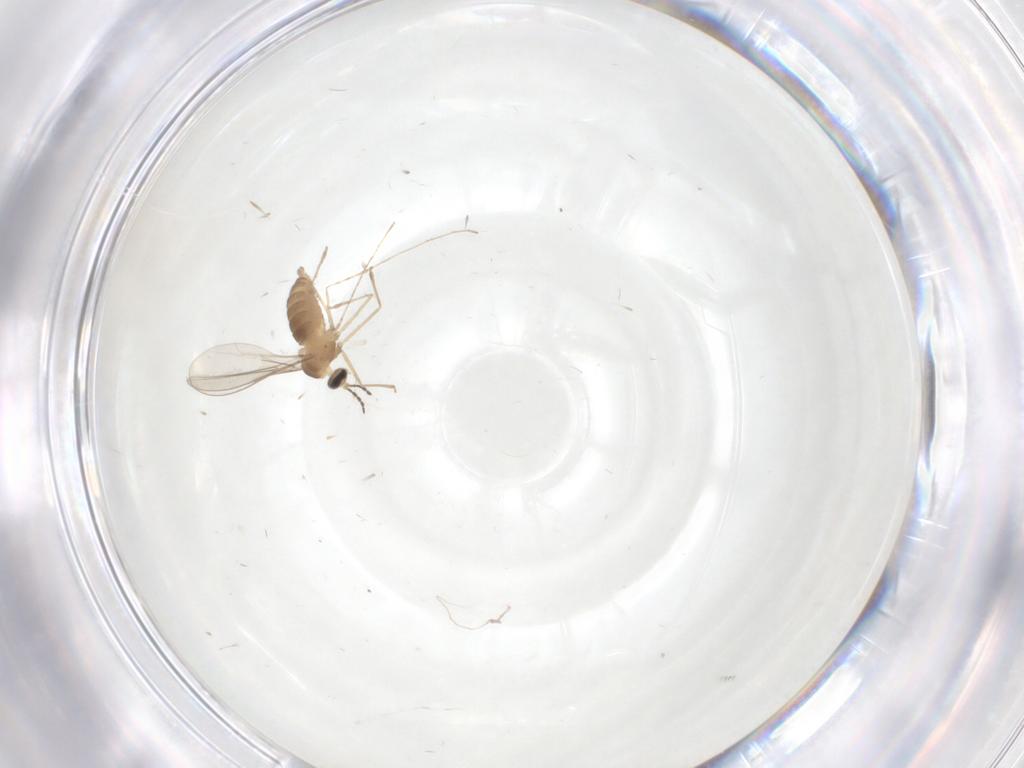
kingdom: Animalia
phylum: Arthropoda
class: Insecta
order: Diptera
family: Cecidomyiidae
